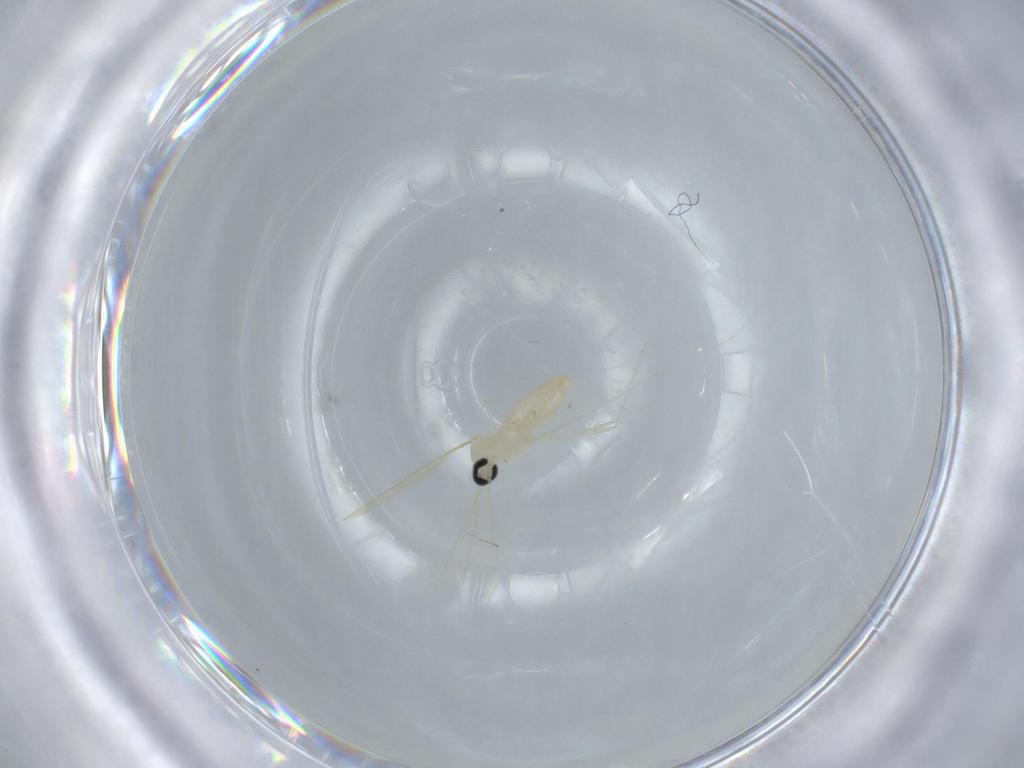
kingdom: Animalia
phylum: Arthropoda
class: Insecta
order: Diptera
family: Cecidomyiidae
